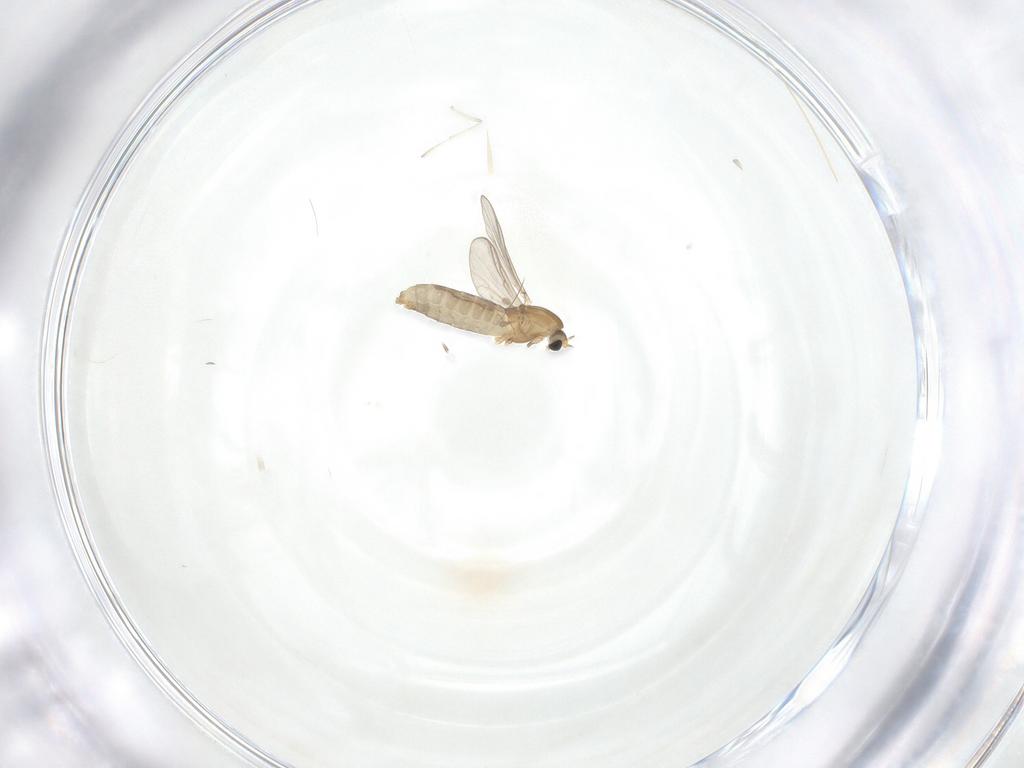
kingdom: Animalia
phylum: Arthropoda
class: Insecta
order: Diptera
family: Chironomidae
